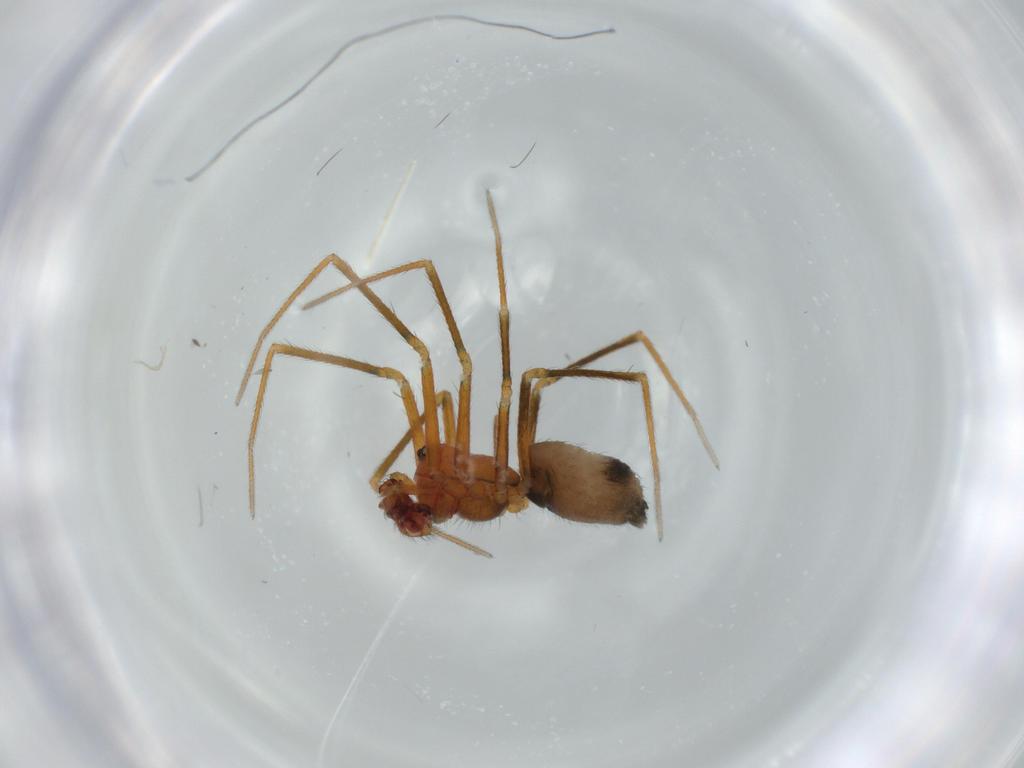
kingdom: Animalia
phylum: Arthropoda
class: Arachnida
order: Araneae
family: Linyphiidae
